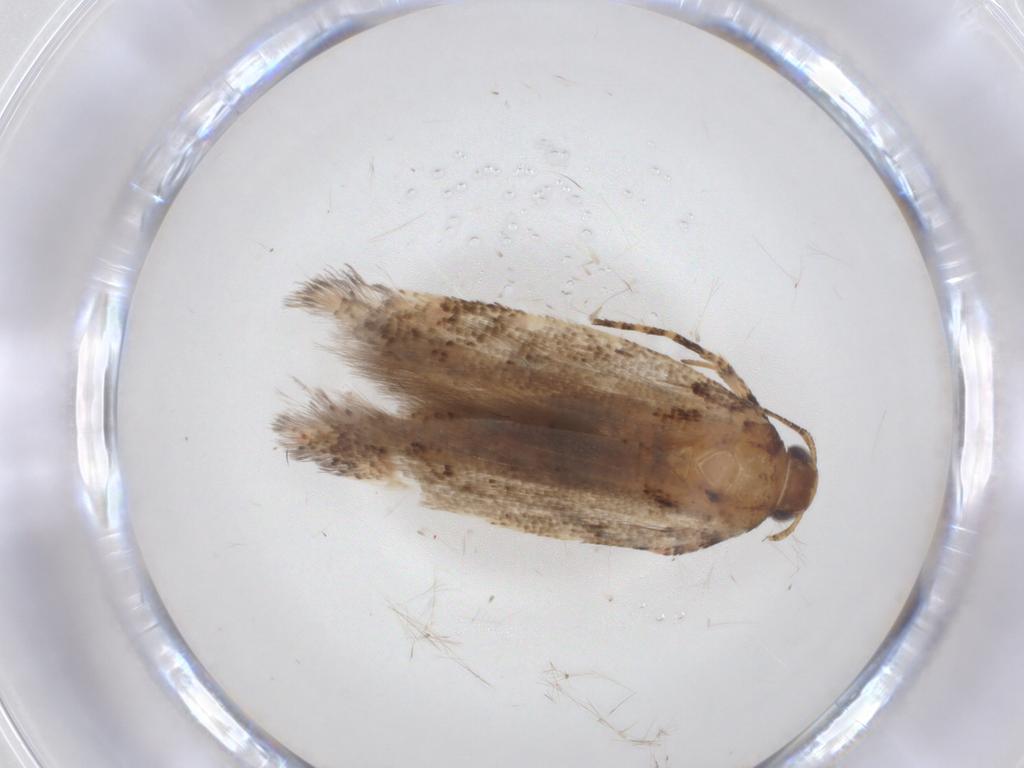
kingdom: Animalia
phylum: Arthropoda
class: Insecta
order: Lepidoptera
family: Gelechiidae
